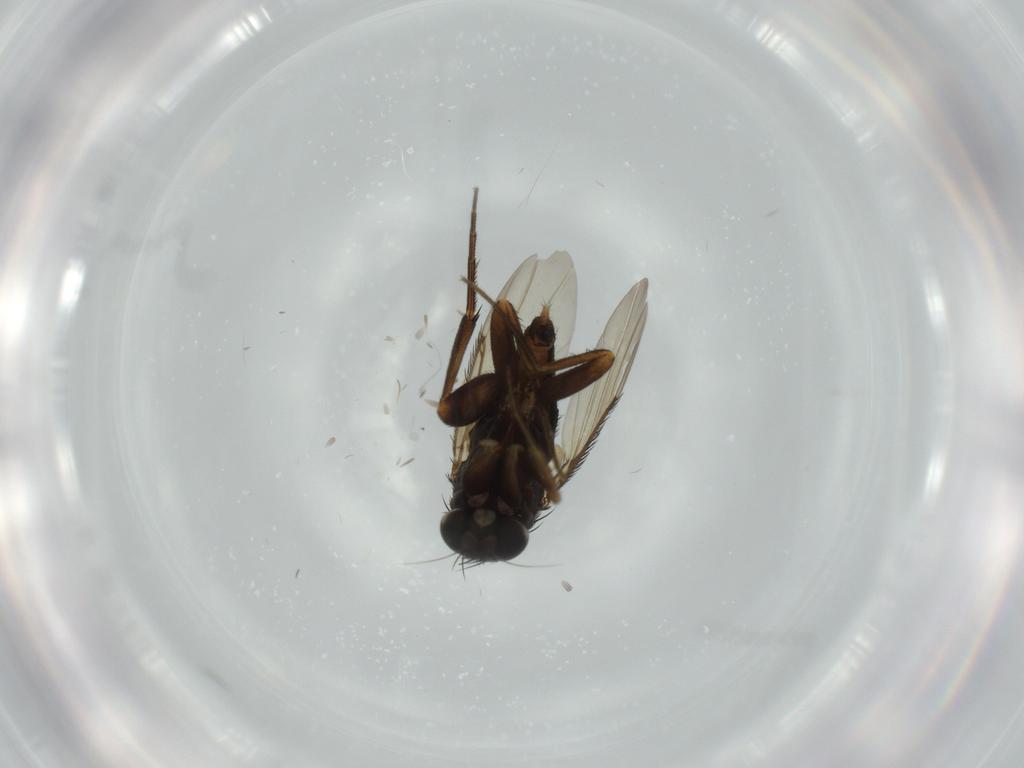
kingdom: Animalia
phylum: Arthropoda
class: Insecta
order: Diptera
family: Phoridae
